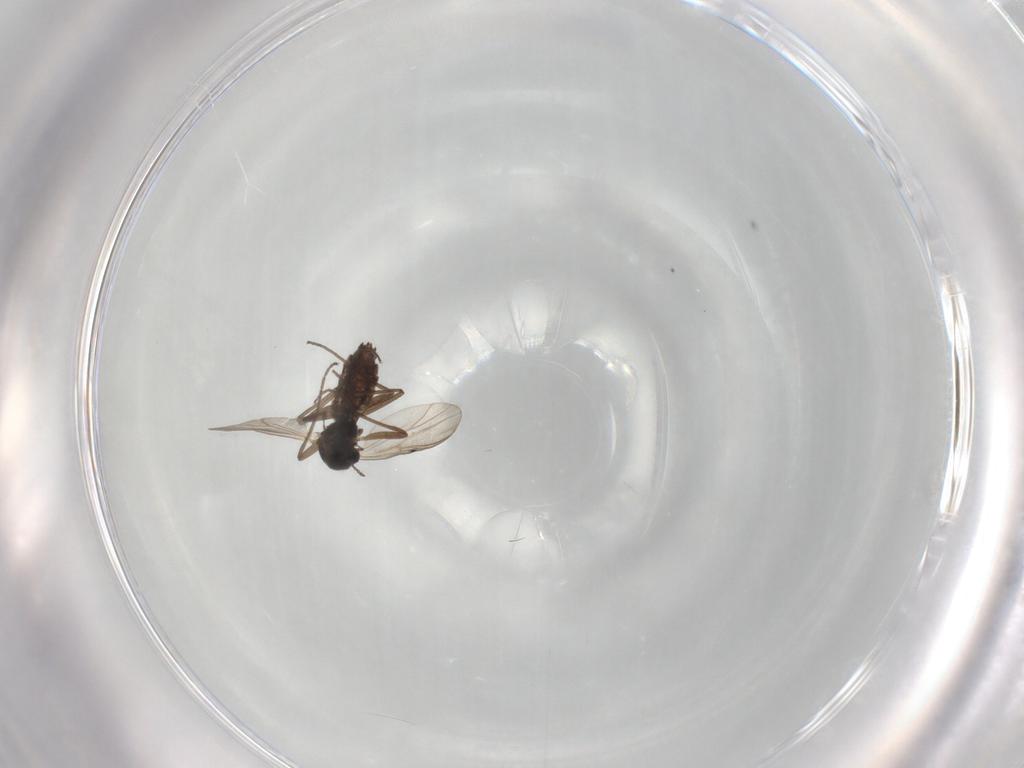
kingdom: Animalia
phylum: Arthropoda
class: Insecta
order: Diptera
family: Chironomidae
